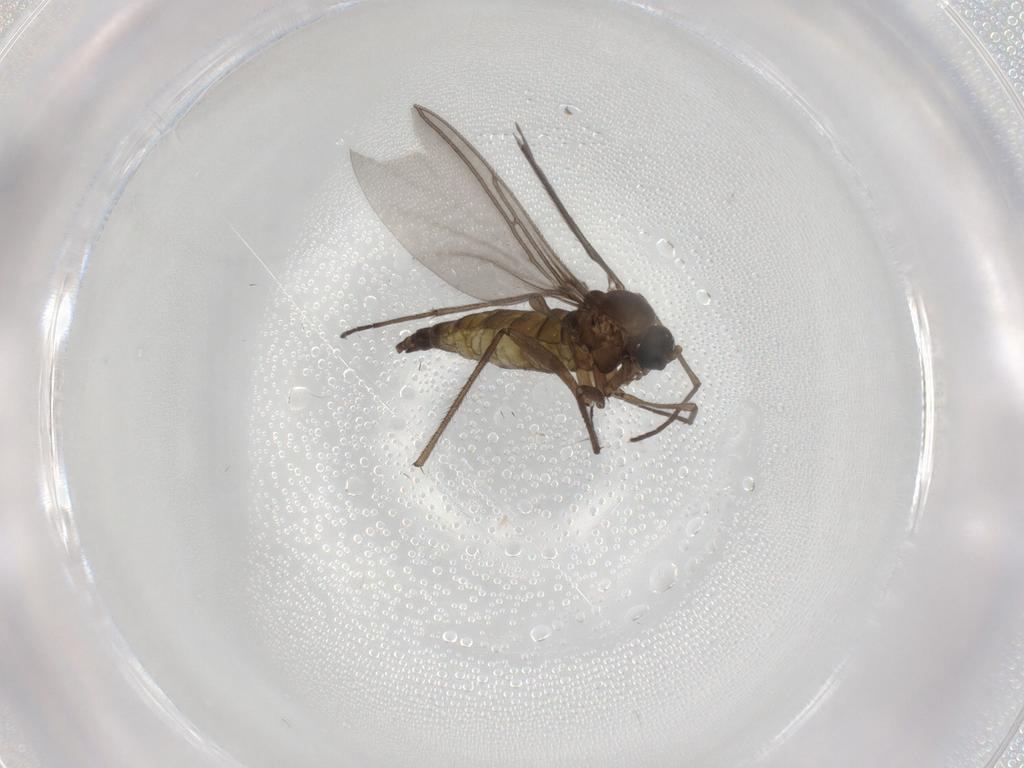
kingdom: Animalia
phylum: Arthropoda
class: Insecta
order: Diptera
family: Sciaridae
